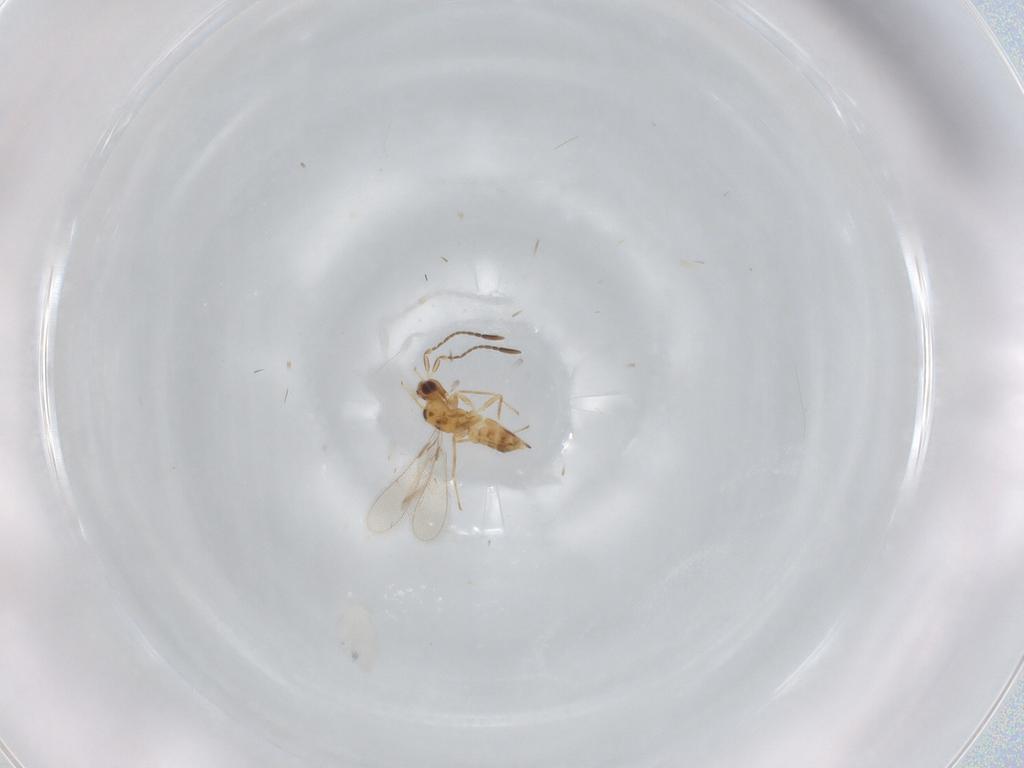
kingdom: Animalia
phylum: Arthropoda
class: Insecta
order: Hymenoptera
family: Mymaridae
